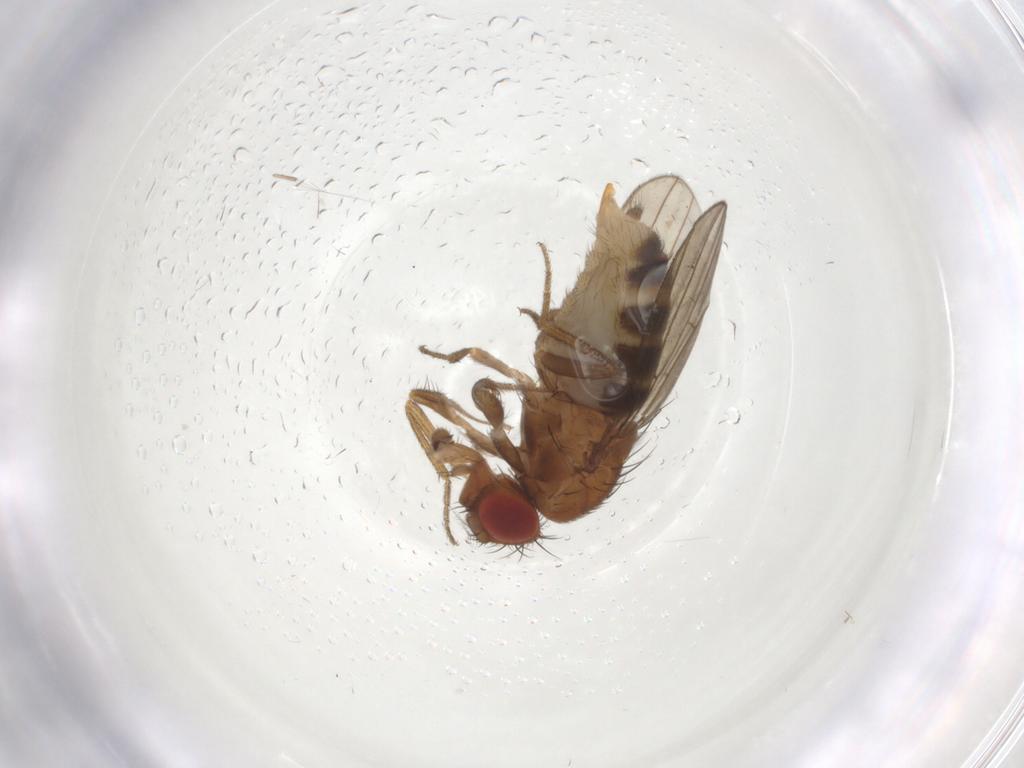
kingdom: Animalia
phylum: Arthropoda
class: Insecta
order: Diptera
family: Drosophilidae
